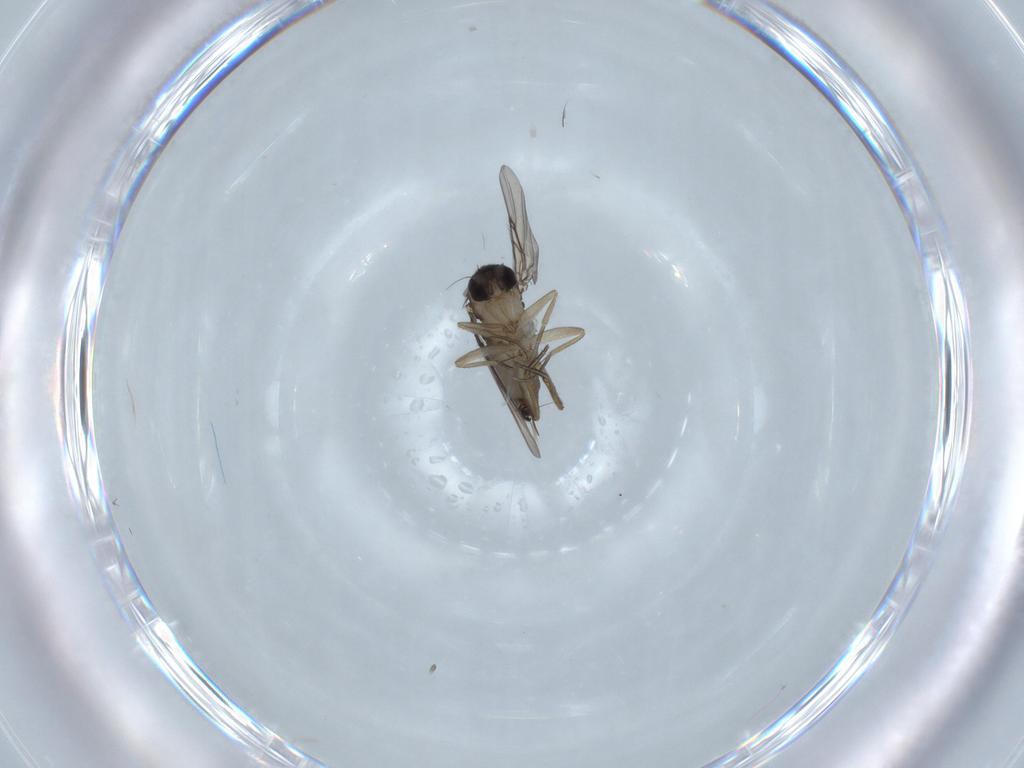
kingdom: Animalia
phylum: Arthropoda
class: Insecta
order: Diptera
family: Phoridae
